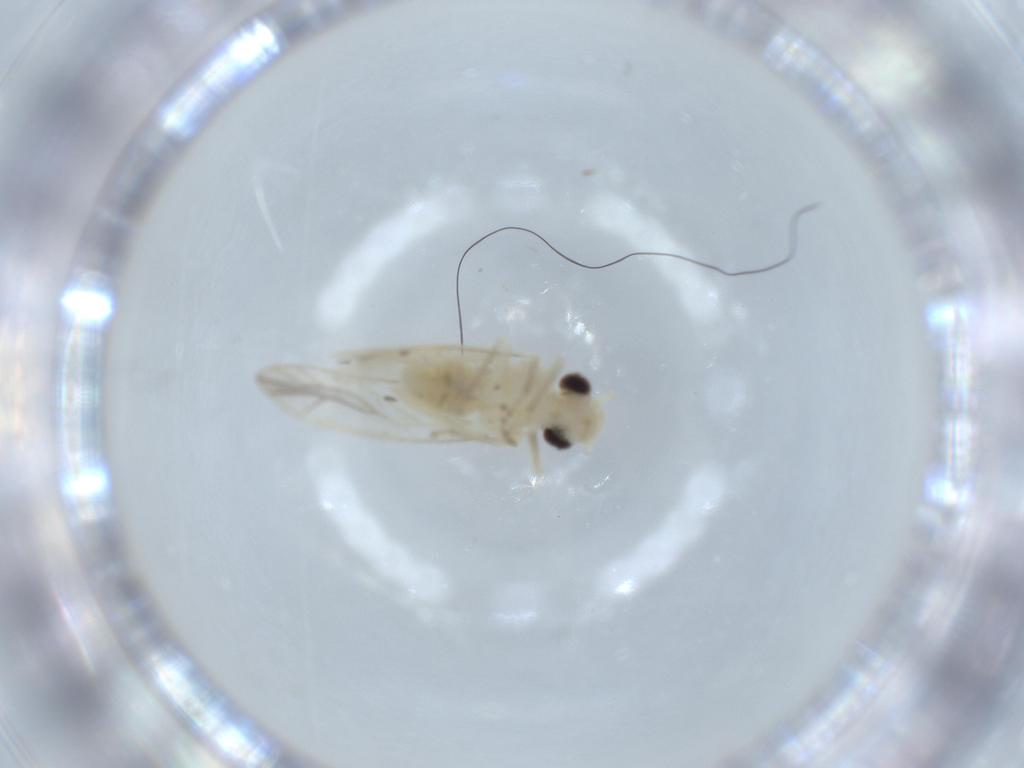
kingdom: Animalia
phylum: Arthropoda
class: Insecta
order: Psocodea
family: Caeciliusidae
